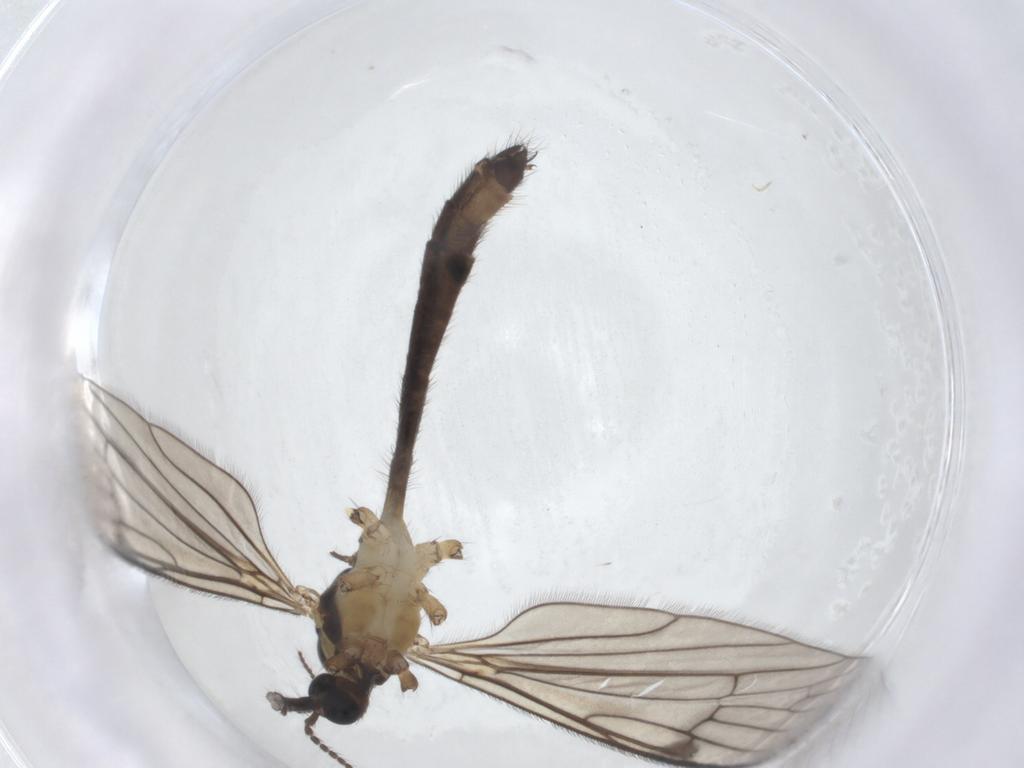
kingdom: Animalia
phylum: Arthropoda
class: Insecta
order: Diptera
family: Limoniidae
